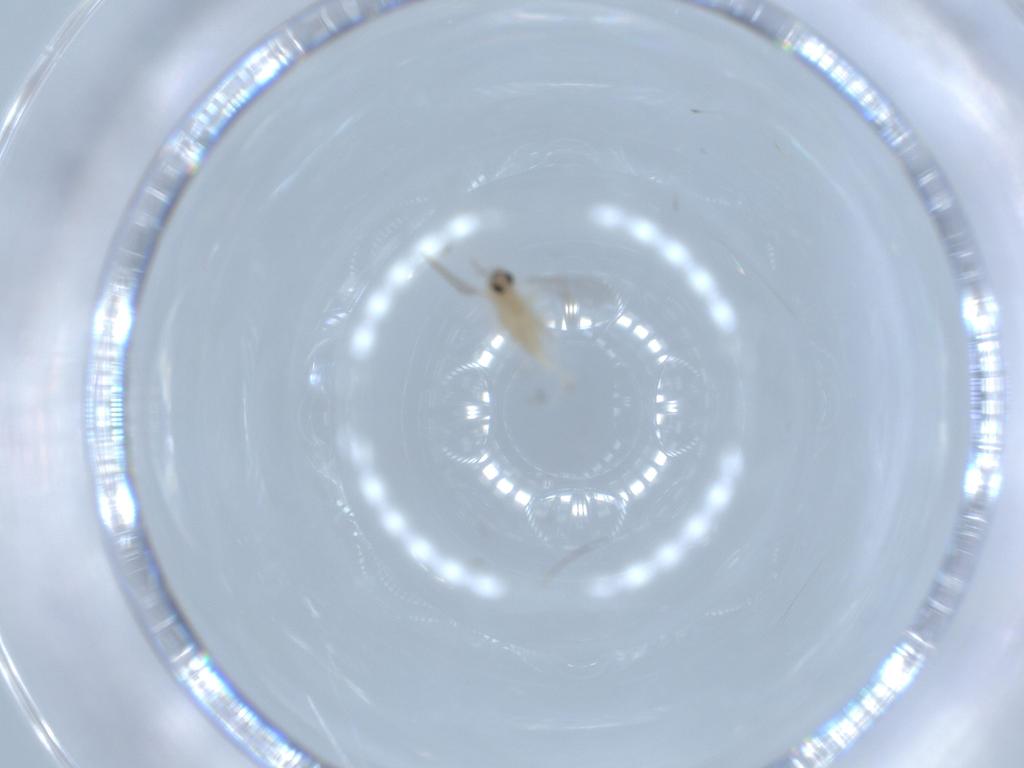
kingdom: Animalia
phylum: Arthropoda
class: Insecta
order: Diptera
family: Cecidomyiidae
